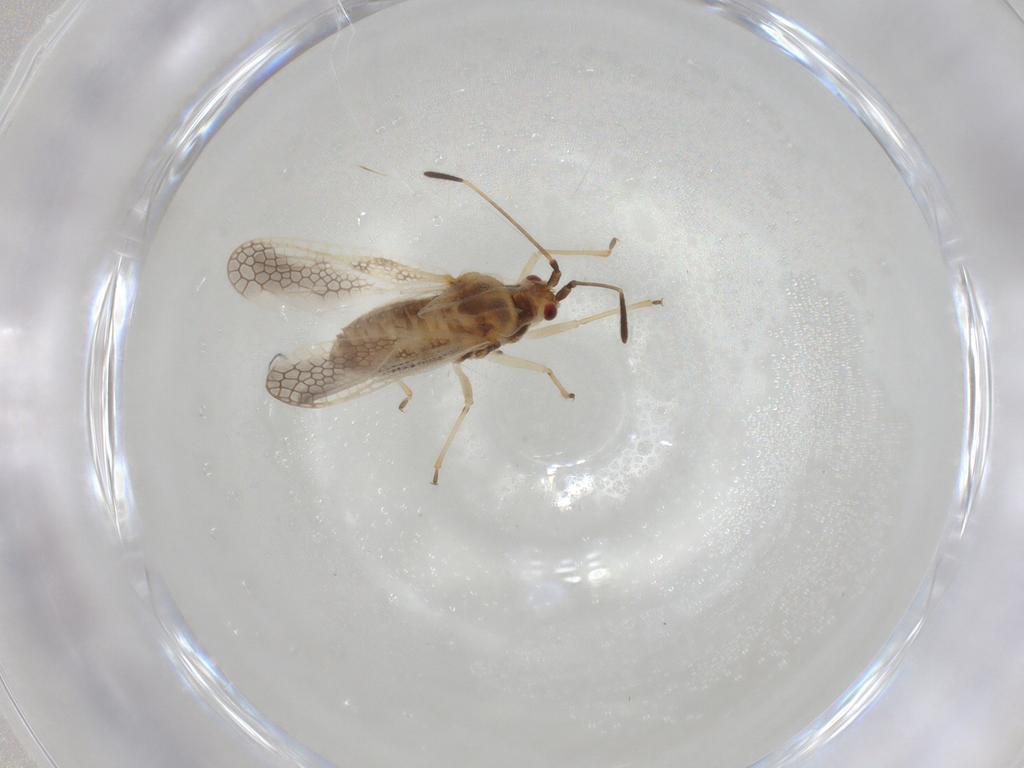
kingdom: Animalia
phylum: Arthropoda
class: Insecta
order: Hemiptera
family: Tingidae
